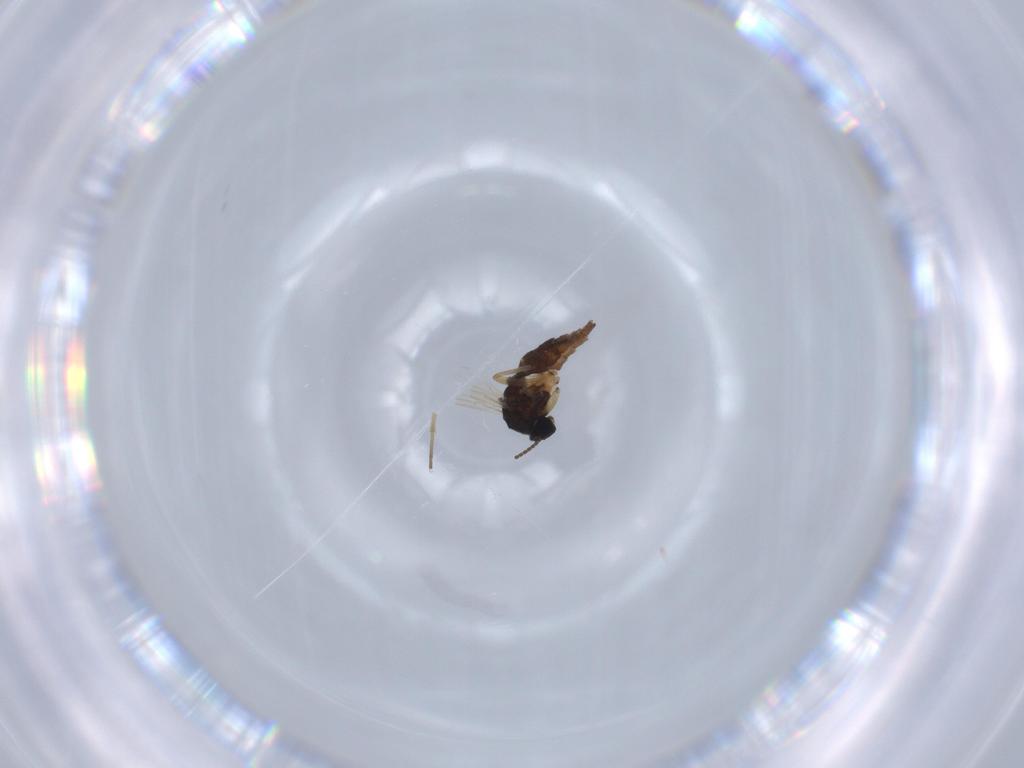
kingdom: Animalia
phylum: Arthropoda
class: Insecta
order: Diptera
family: Sciaridae
